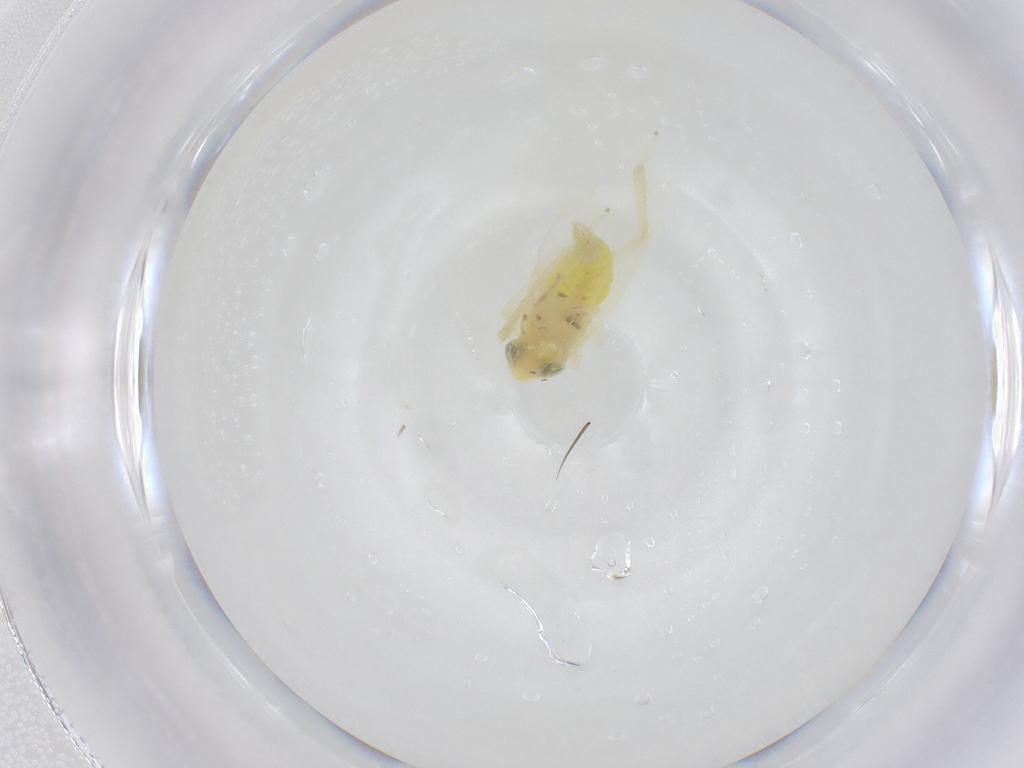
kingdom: Animalia
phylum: Arthropoda
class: Insecta
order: Hemiptera
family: Cicadellidae
